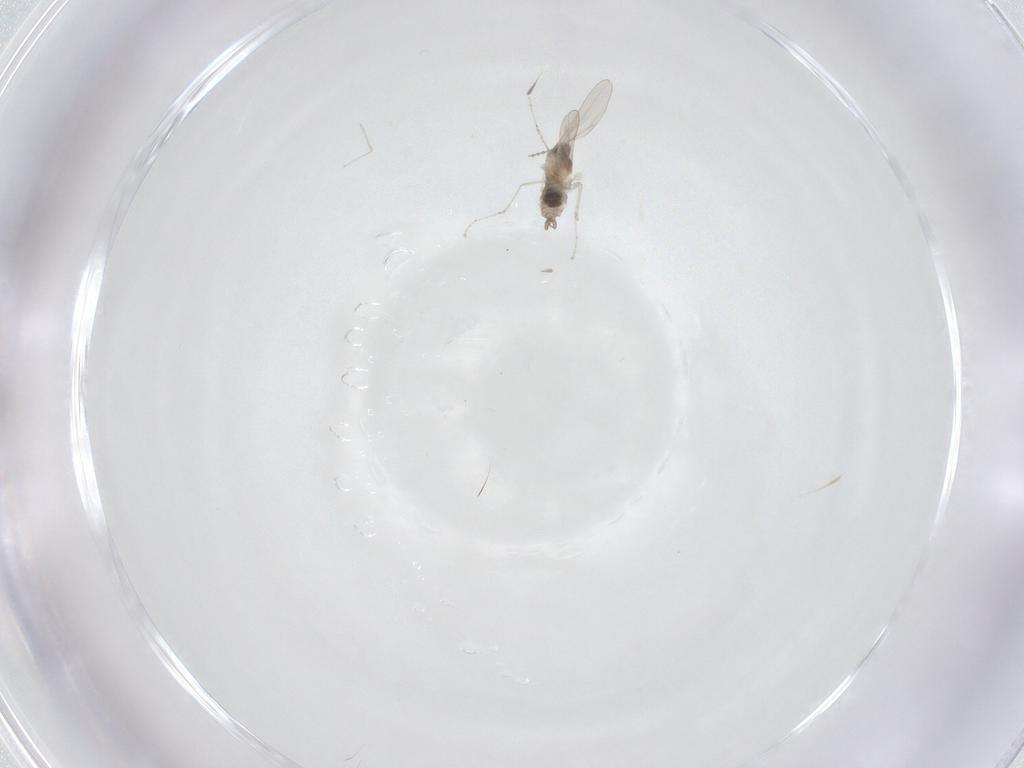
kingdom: Animalia
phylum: Arthropoda
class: Insecta
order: Diptera
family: Cecidomyiidae
